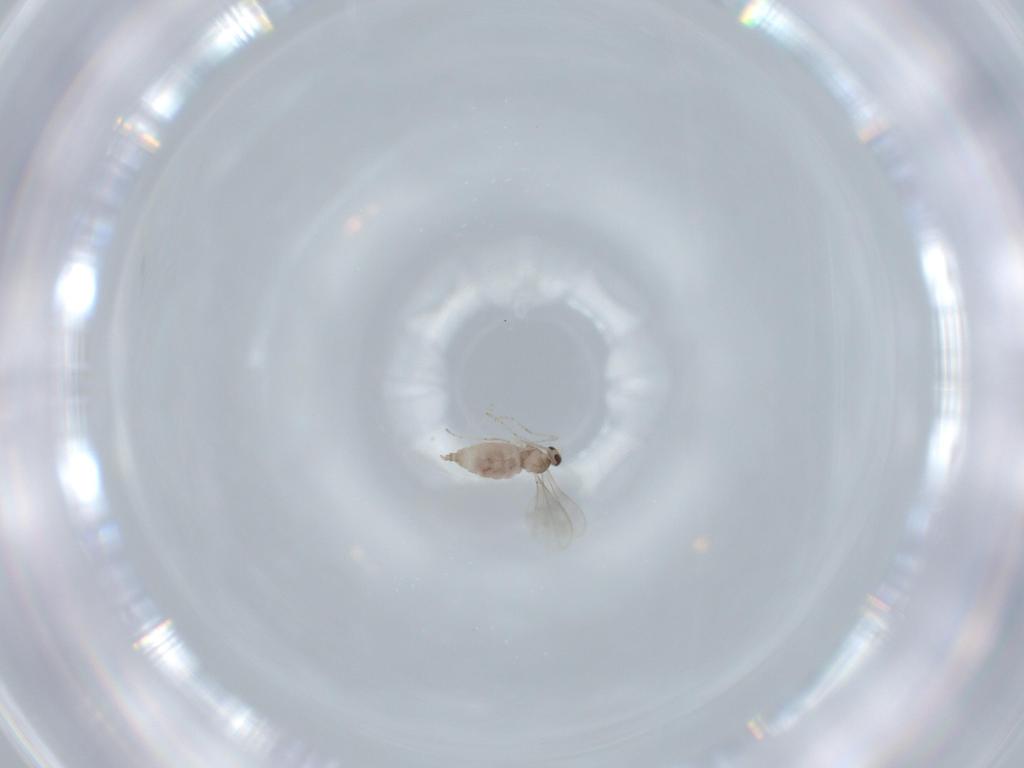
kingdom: Animalia
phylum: Arthropoda
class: Insecta
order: Diptera
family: Cecidomyiidae
